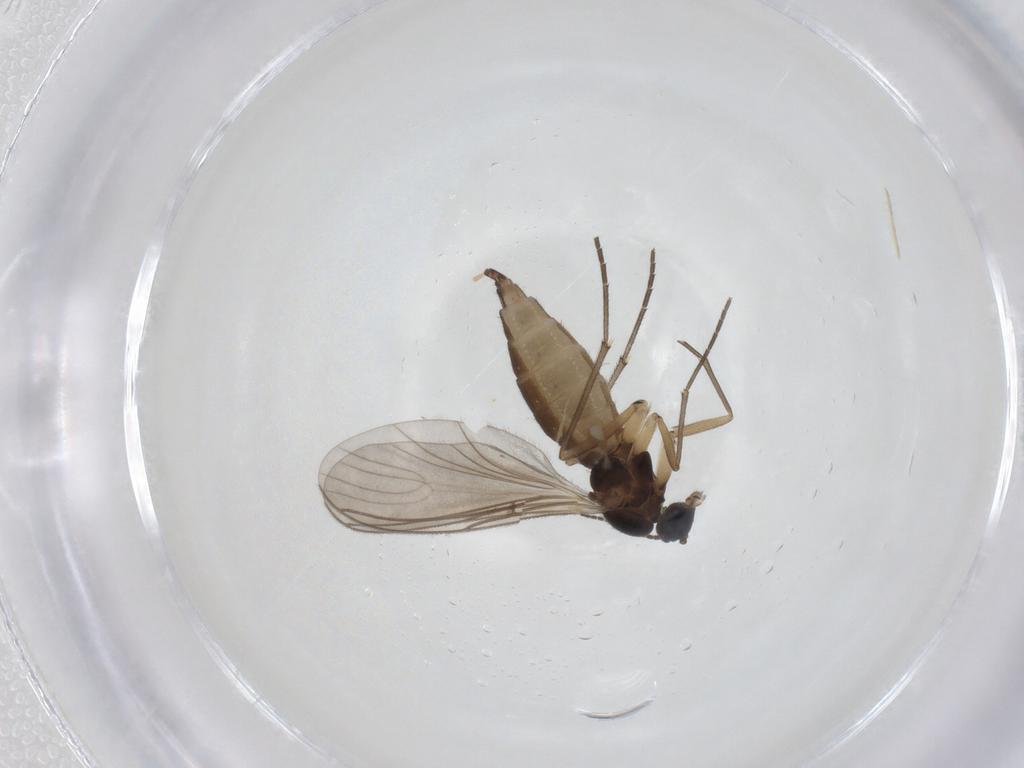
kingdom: Animalia
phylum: Arthropoda
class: Insecta
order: Diptera
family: Sciaridae
